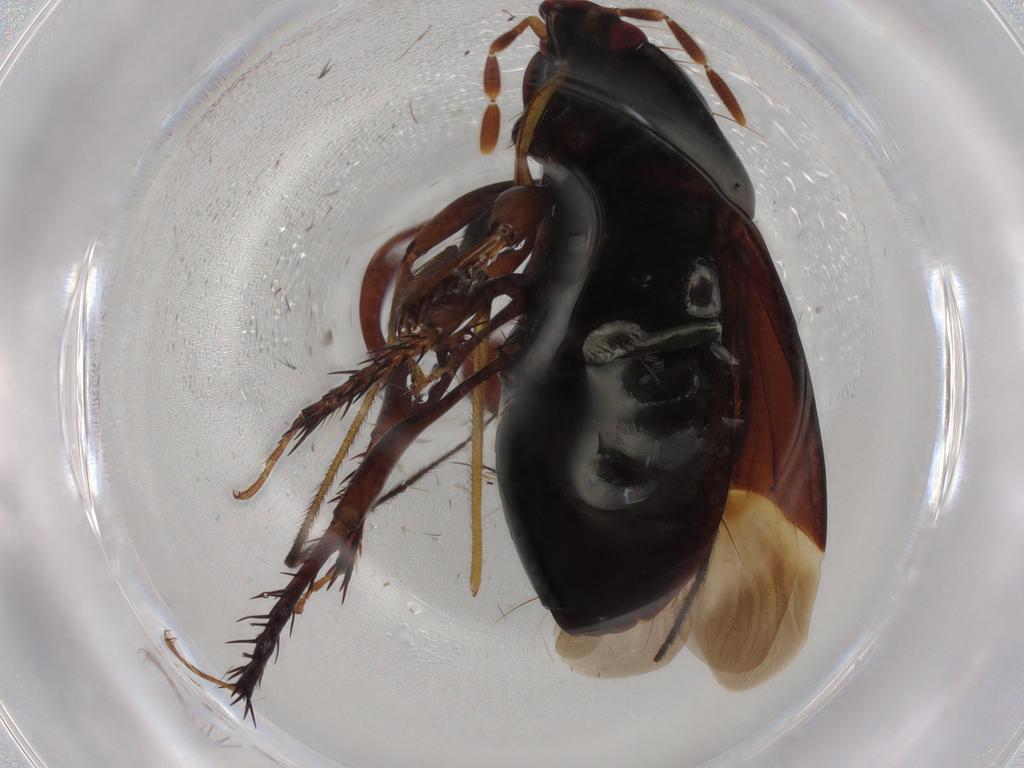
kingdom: Animalia
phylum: Arthropoda
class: Insecta
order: Hemiptera
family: Cydnidae
